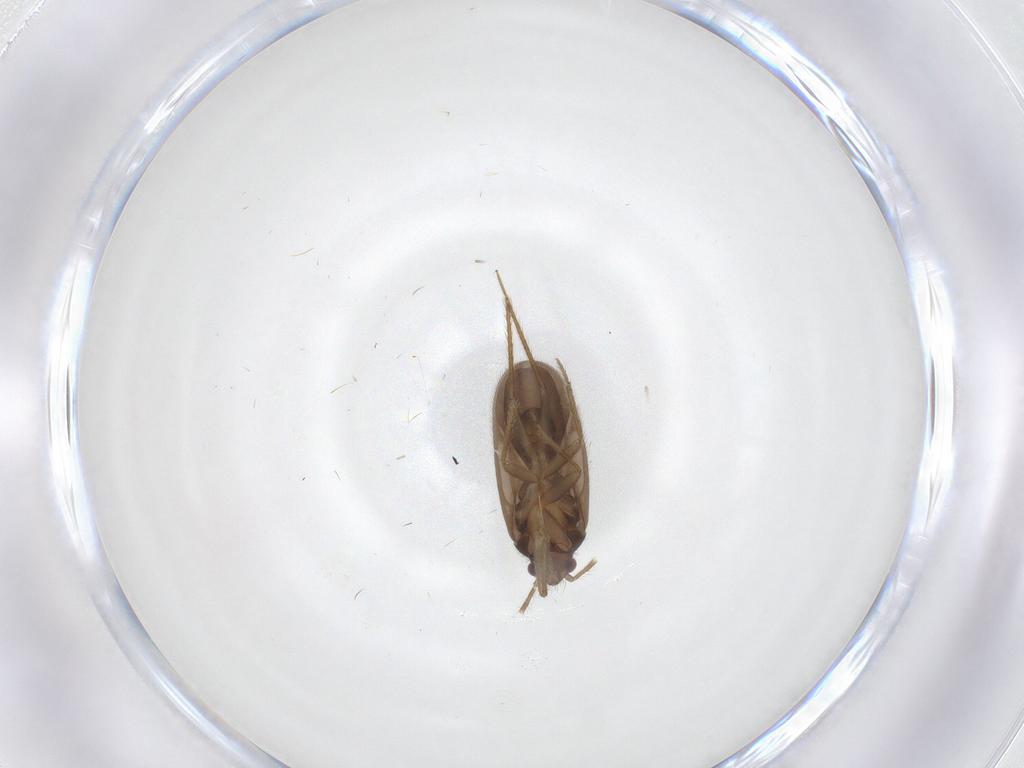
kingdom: Animalia
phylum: Arthropoda
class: Insecta
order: Hemiptera
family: Ceratocombidae
